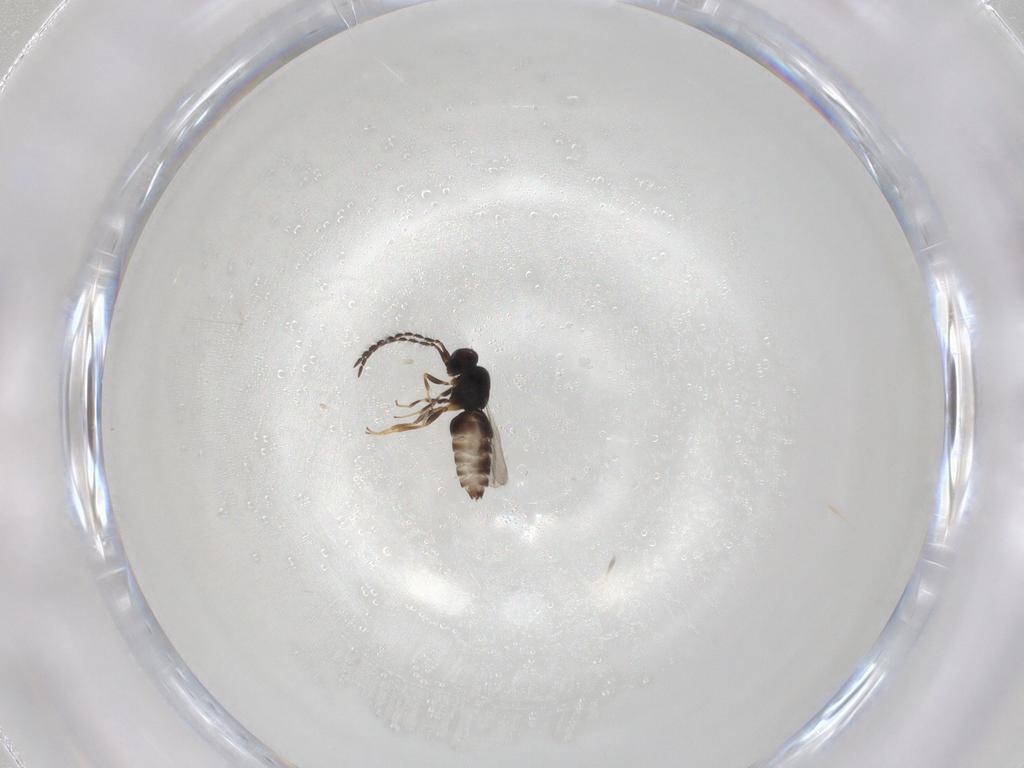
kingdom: Animalia
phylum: Arthropoda
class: Insecta
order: Hymenoptera
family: Ceraphronidae
